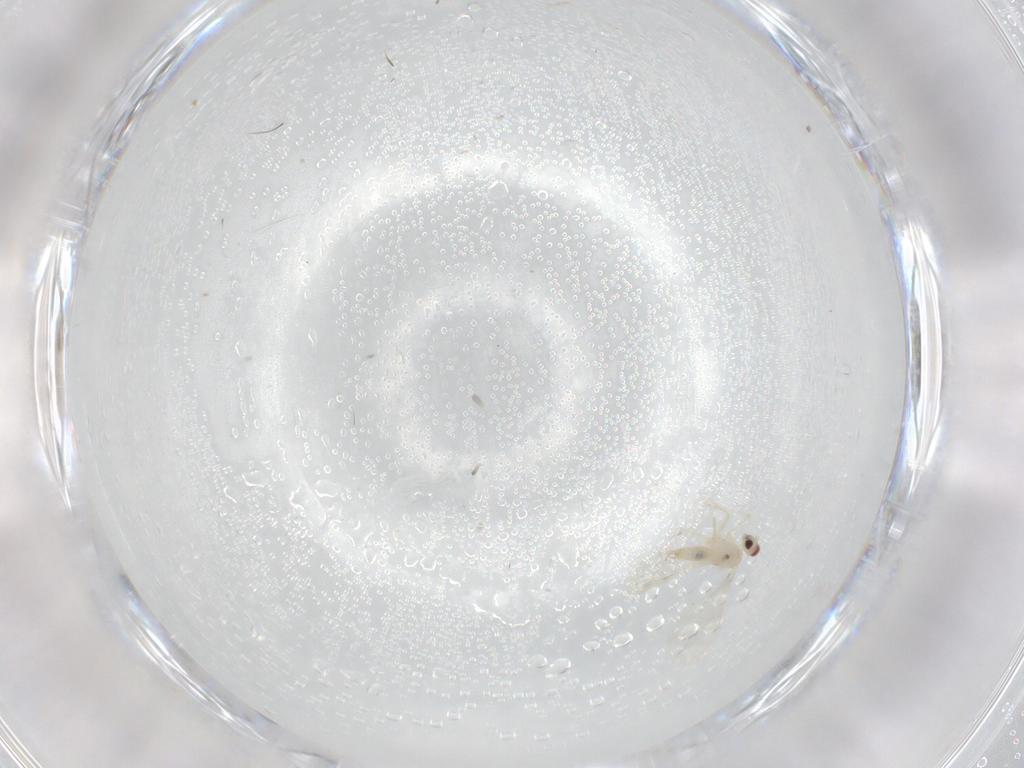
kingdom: Animalia
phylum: Arthropoda
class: Insecta
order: Diptera
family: Cecidomyiidae
